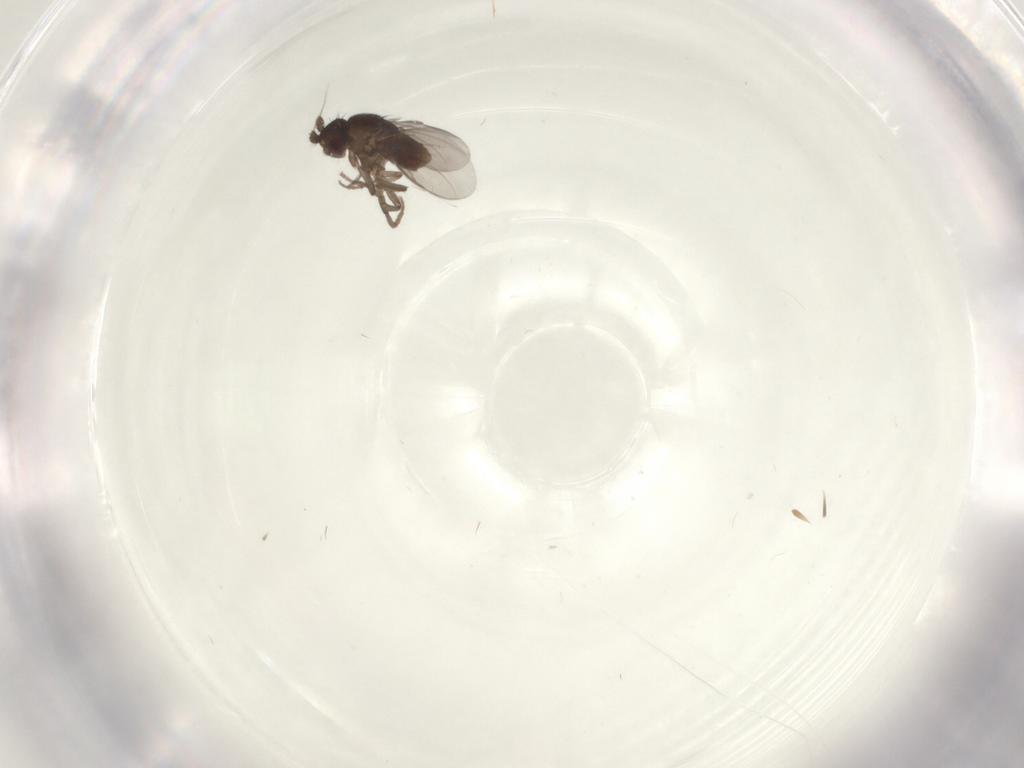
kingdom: Animalia
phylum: Arthropoda
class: Insecta
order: Diptera
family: Sphaeroceridae
